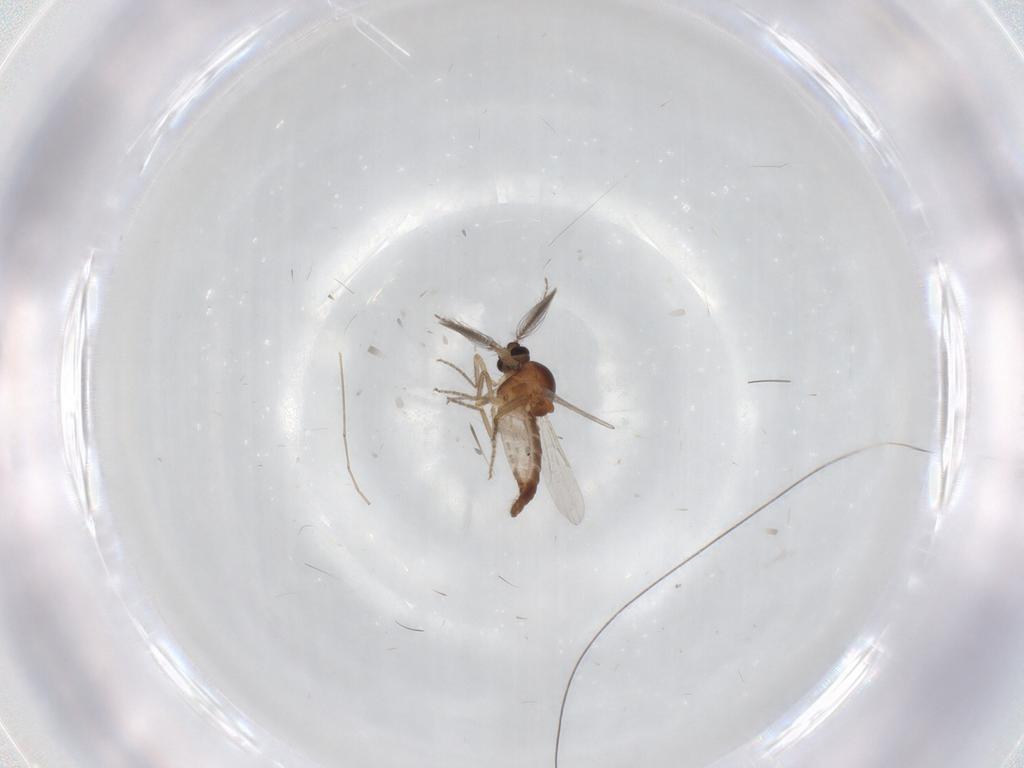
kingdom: Animalia
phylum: Arthropoda
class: Insecta
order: Diptera
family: Ceratopogonidae
